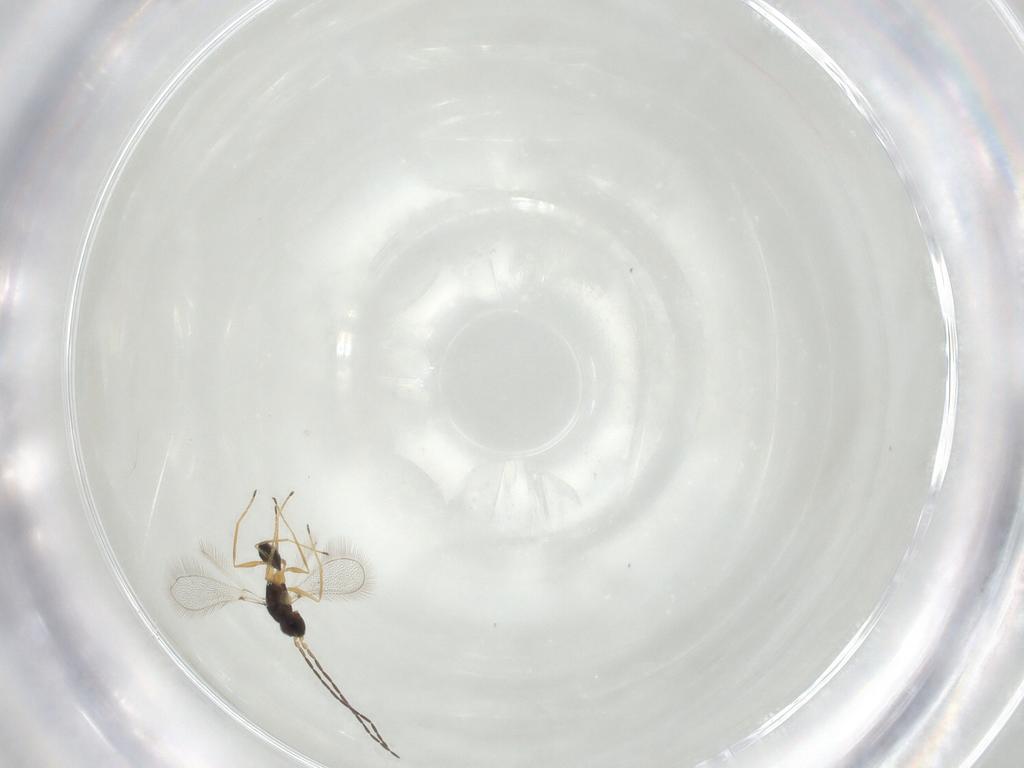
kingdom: Animalia
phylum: Arthropoda
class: Insecta
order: Hymenoptera
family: Mymaridae
